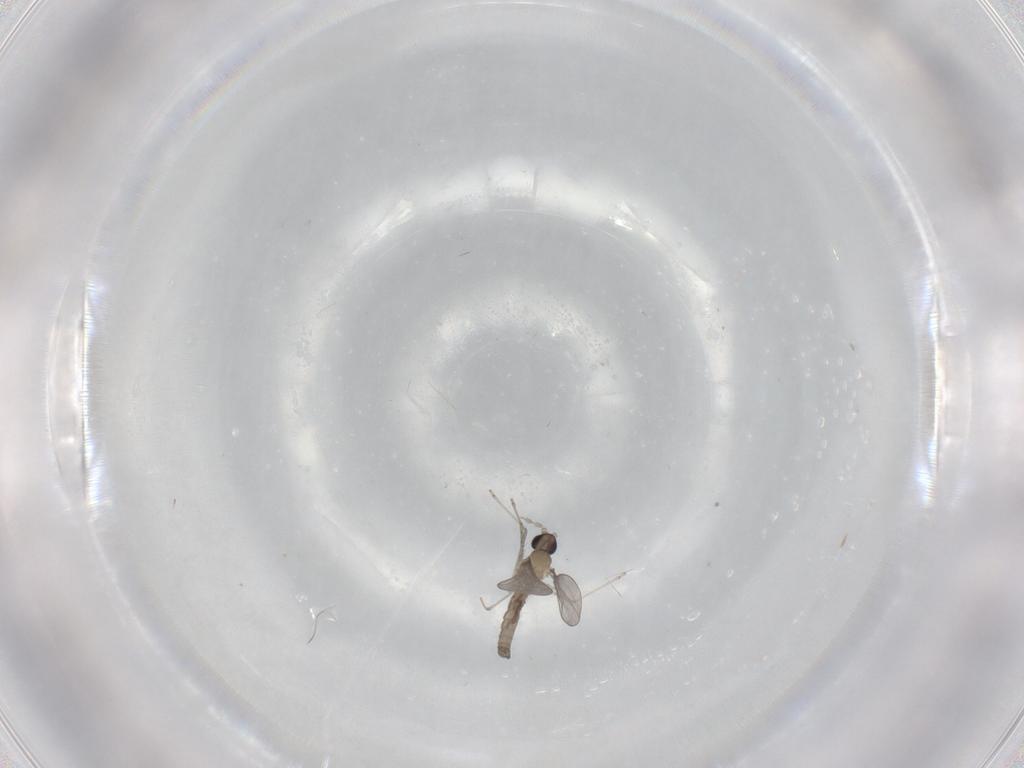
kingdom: Animalia
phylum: Arthropoda
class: Insecta
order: Diptera
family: Cecidomyiidae
